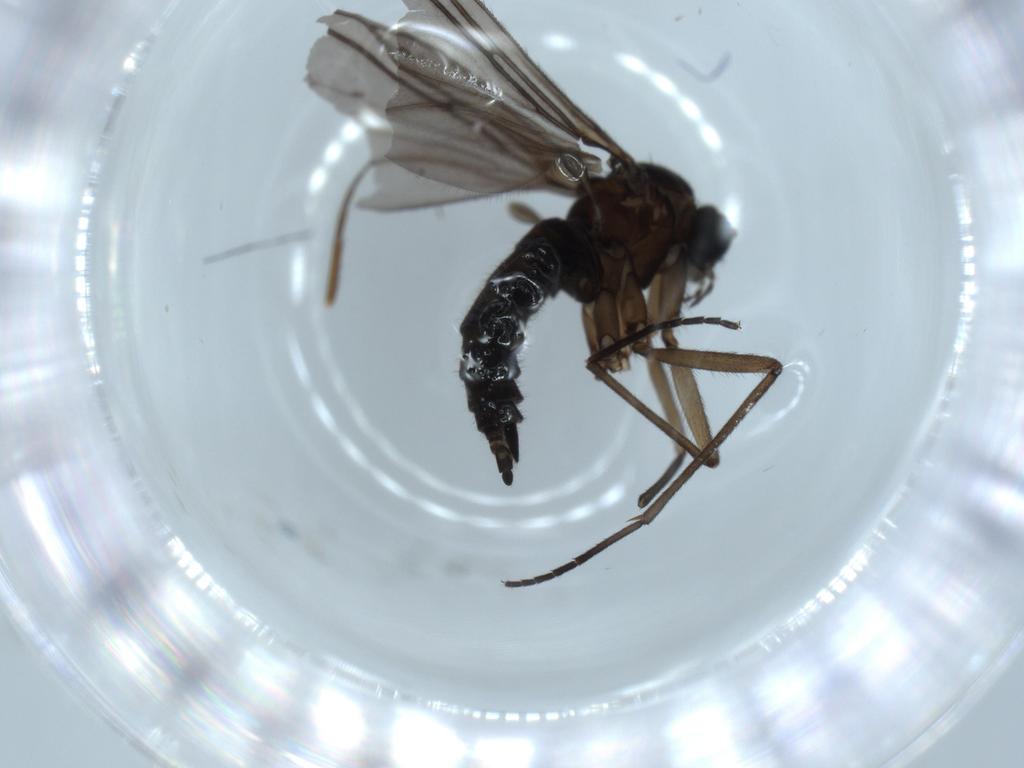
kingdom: Animalia
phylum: Arthropoda
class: Insecta
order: Diptera
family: Sciaridae
